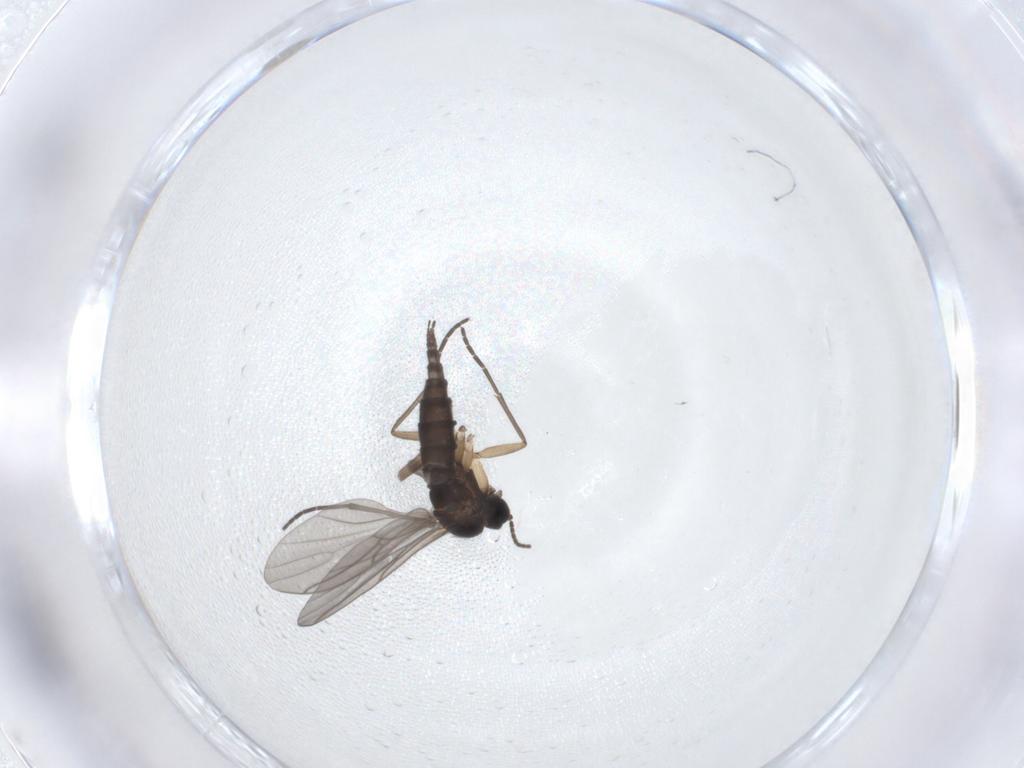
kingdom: Animalia
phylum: Arthropoda
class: Insecta
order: Diptera
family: Sciaridae
